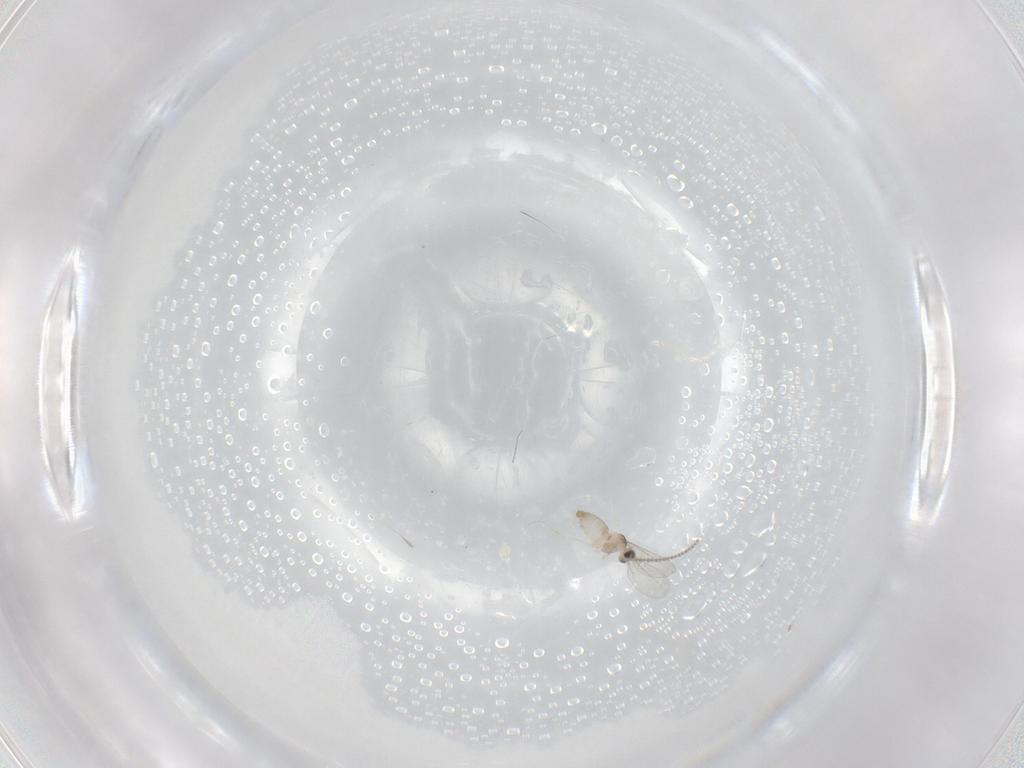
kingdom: Animalia
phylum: Arthropoda
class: Insecta
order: Diptera
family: Cecidomyiidae
